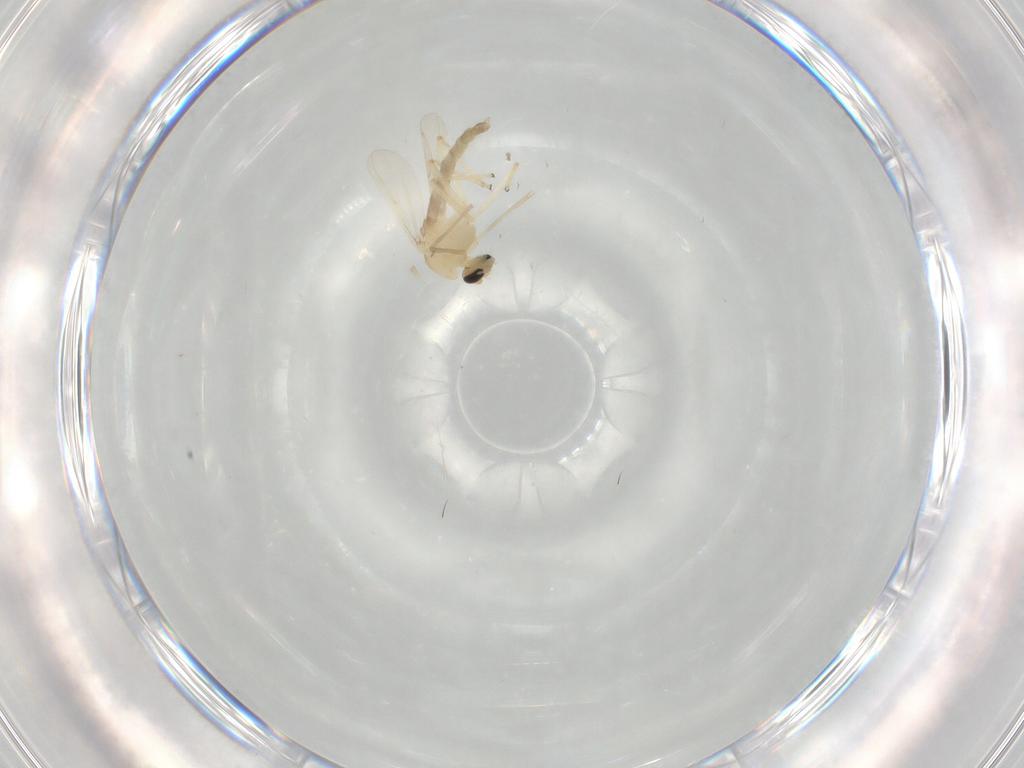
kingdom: Animalia
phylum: Arthropoda
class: Insecta
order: Diptera
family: Chironomidae
